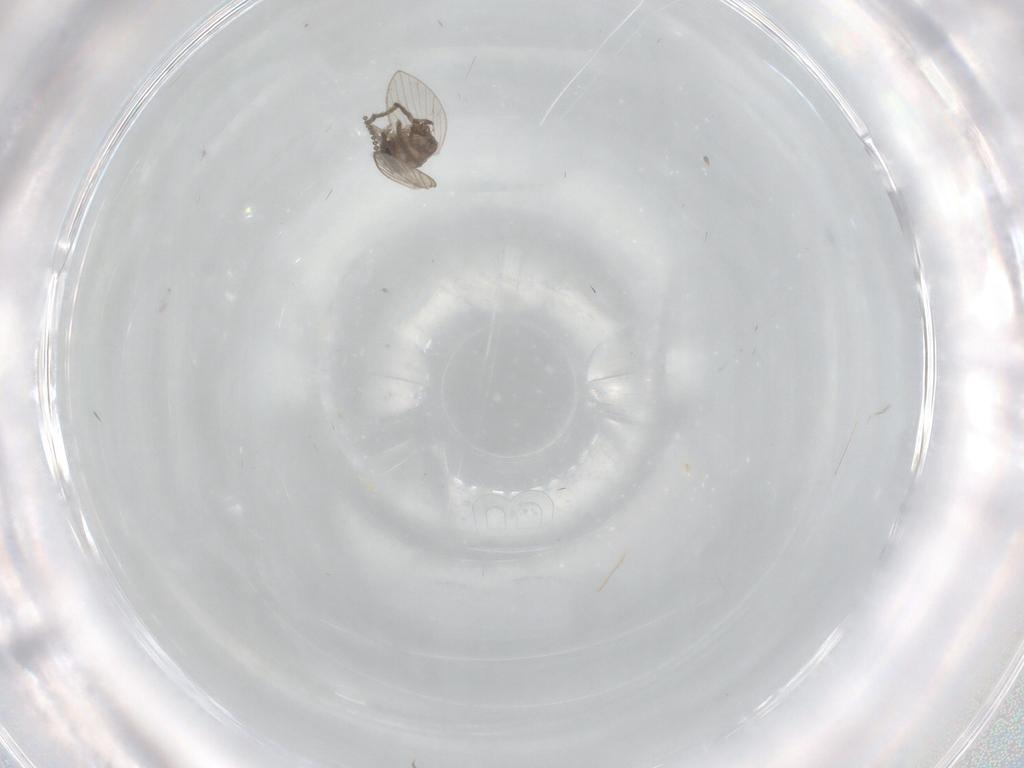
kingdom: Animalia
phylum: Arthropoda
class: Insecta
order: Diptera
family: Psychodidae
